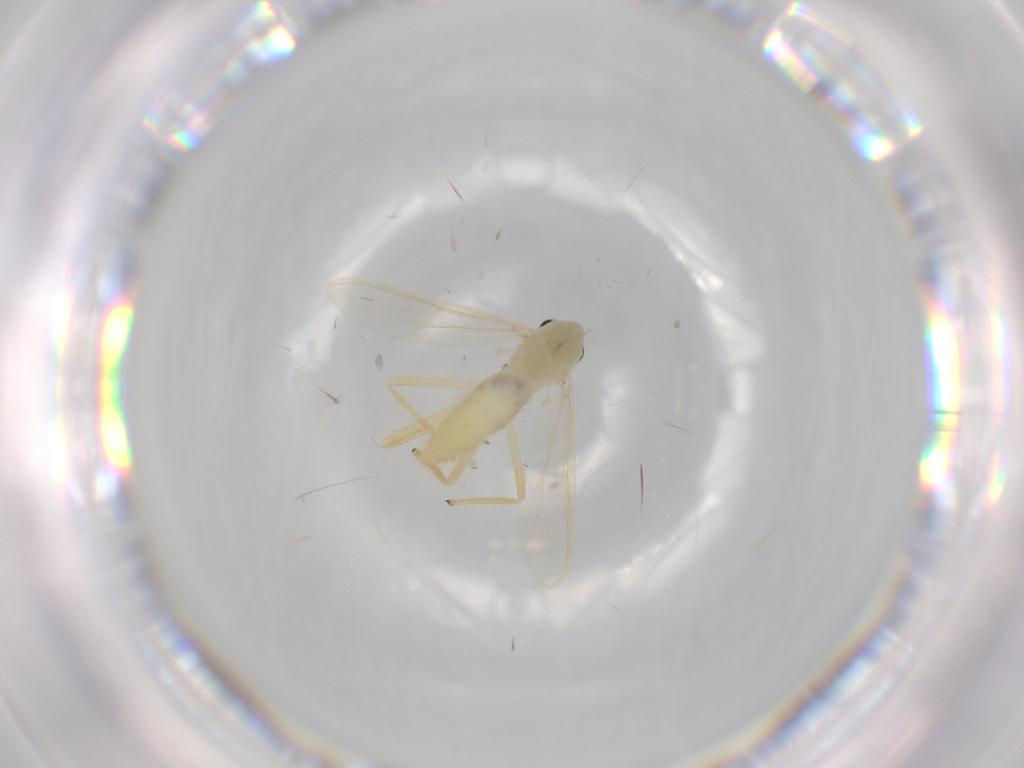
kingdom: Animalia
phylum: Arthropoda
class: Insecta
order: Diptera
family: Chironomidae
